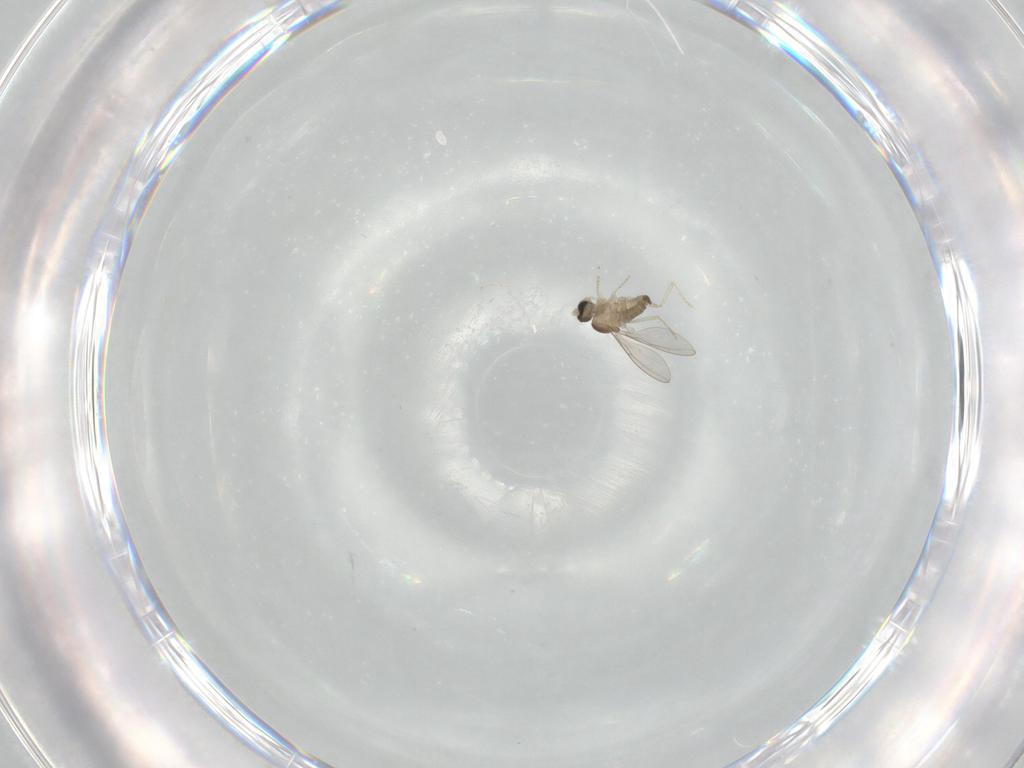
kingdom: Animalia
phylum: Arthropoda
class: Insecta
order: Diptera
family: Cecidomyiidae
